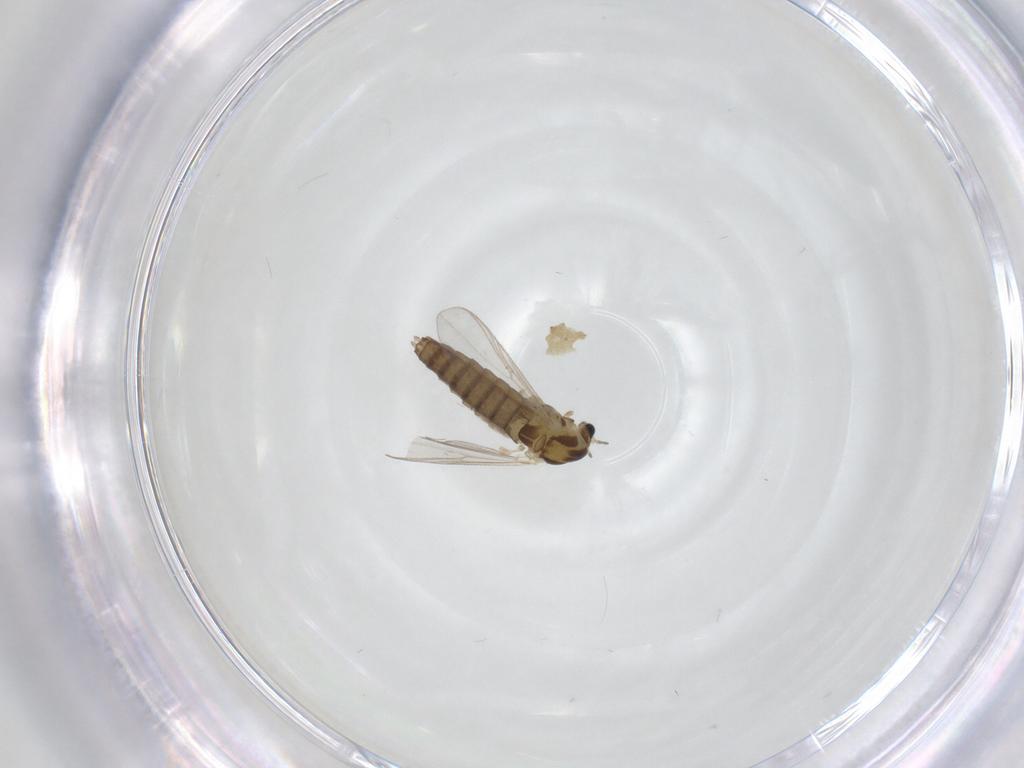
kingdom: Animalia
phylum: Arthropoda
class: Insecta
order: Diptera
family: Chironomidae
